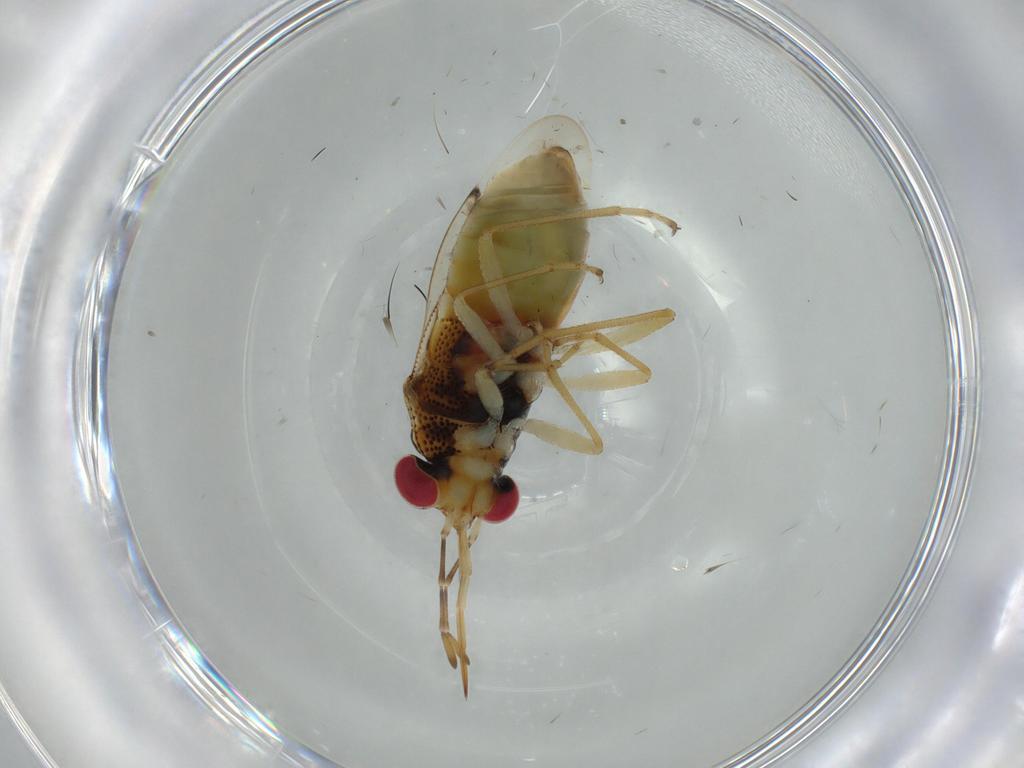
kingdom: Animalia
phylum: Arthropoda
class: Insecta
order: Hemiptera
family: Geocoridae
